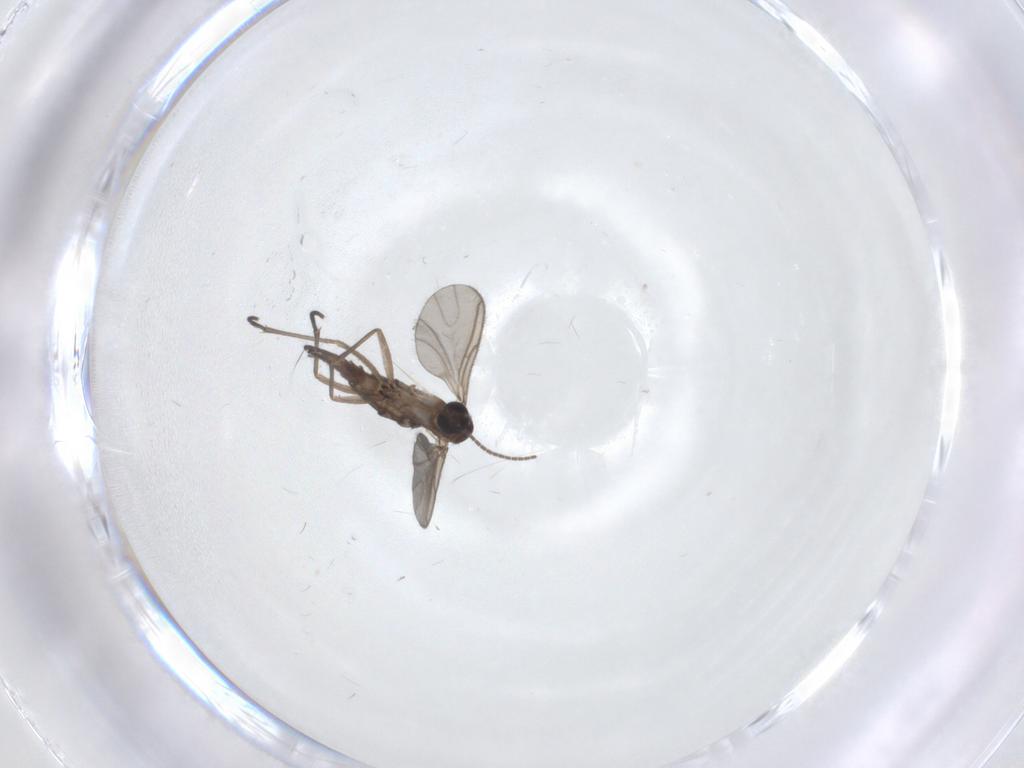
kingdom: Animalia
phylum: Arthropoda
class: Insecta
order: Diptera
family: Sciaridae
